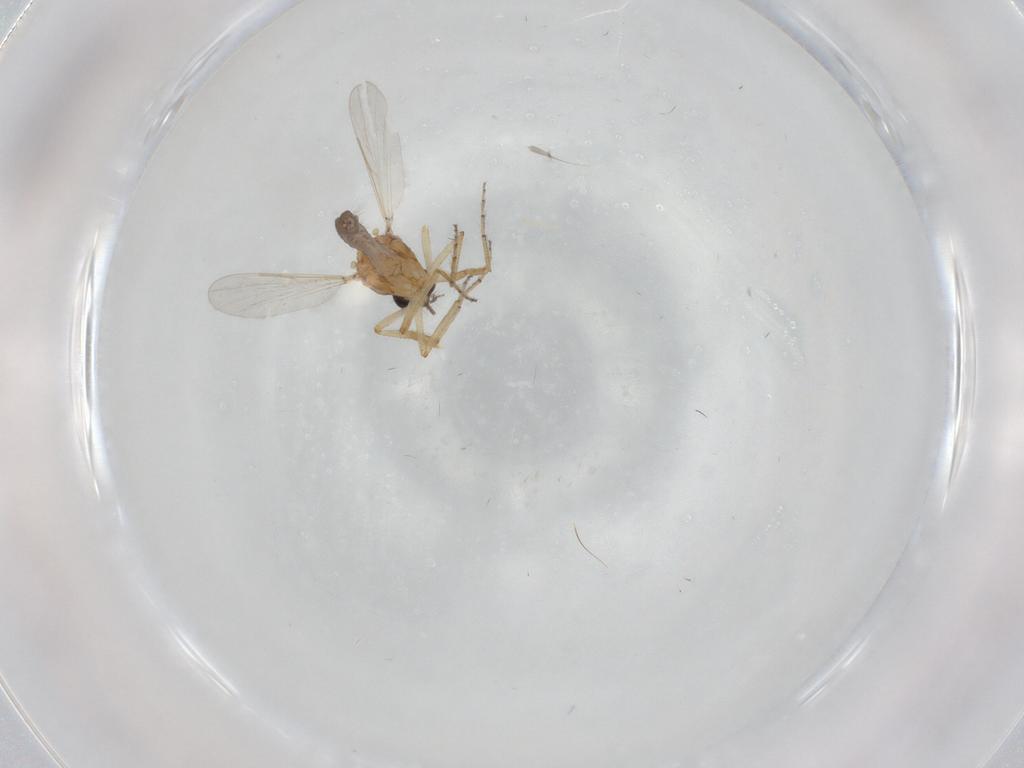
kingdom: Animalia
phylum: Arthropoda
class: Insecta
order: Diptera
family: Ceratopogonidae
